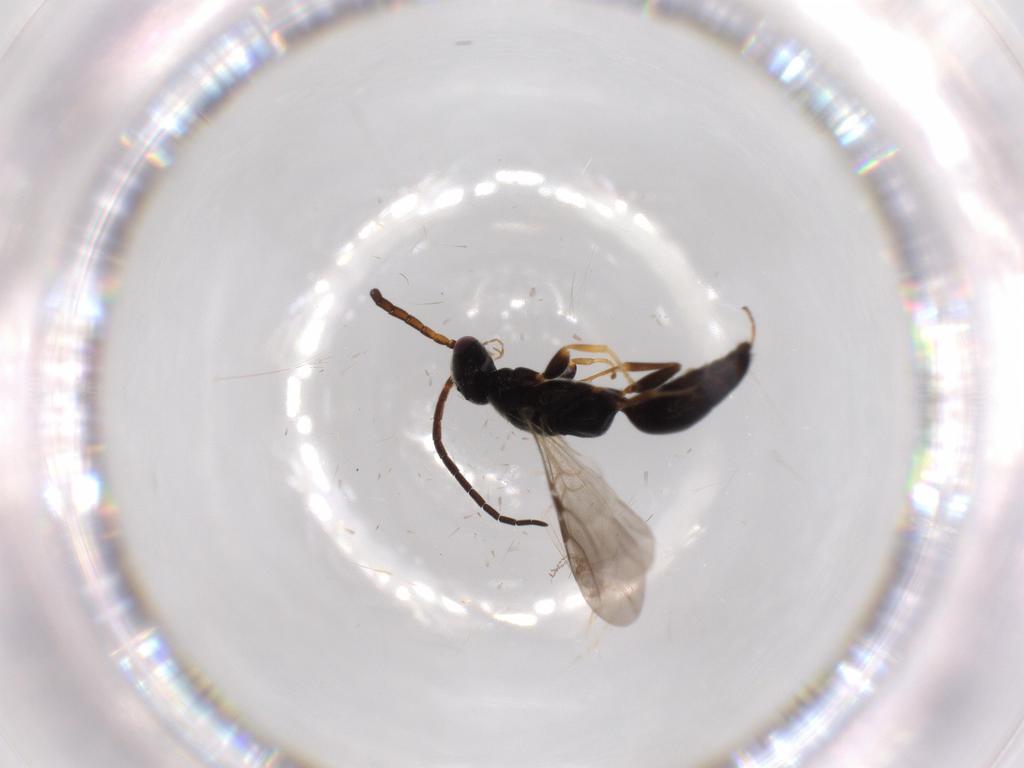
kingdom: Animalia
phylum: Arthropoda
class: Insecta
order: Hymenoptera
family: Bethylidae
